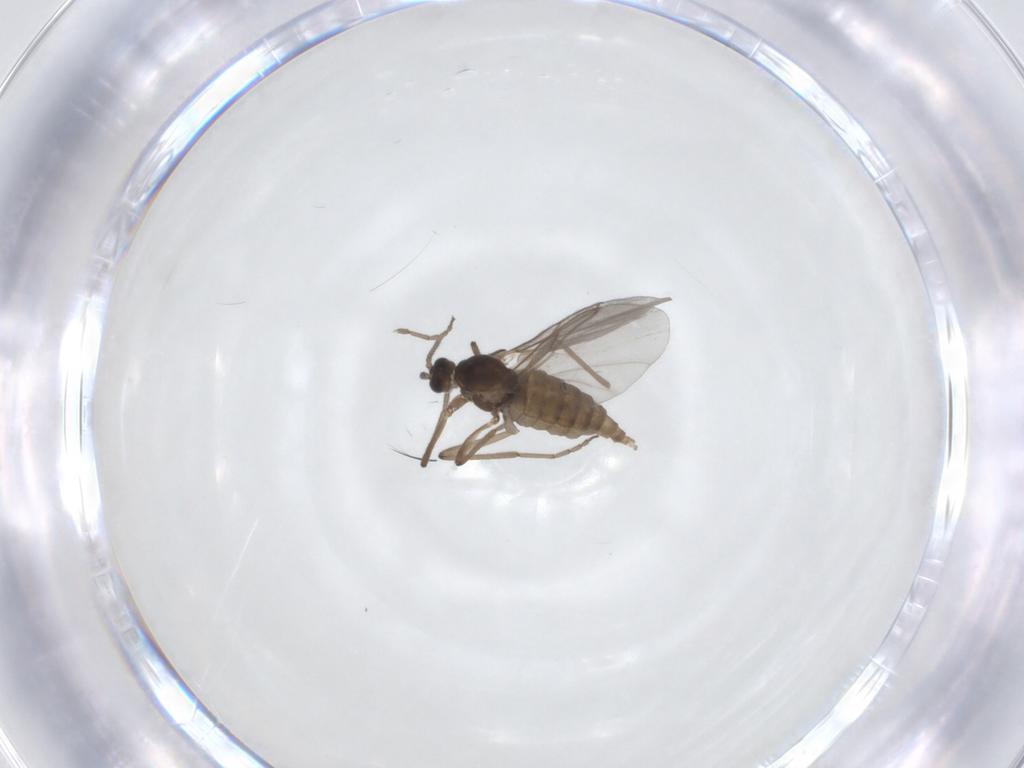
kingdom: Animalia
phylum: Arthropoda
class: Insecta
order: Diptera
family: Cecidomyiidae
